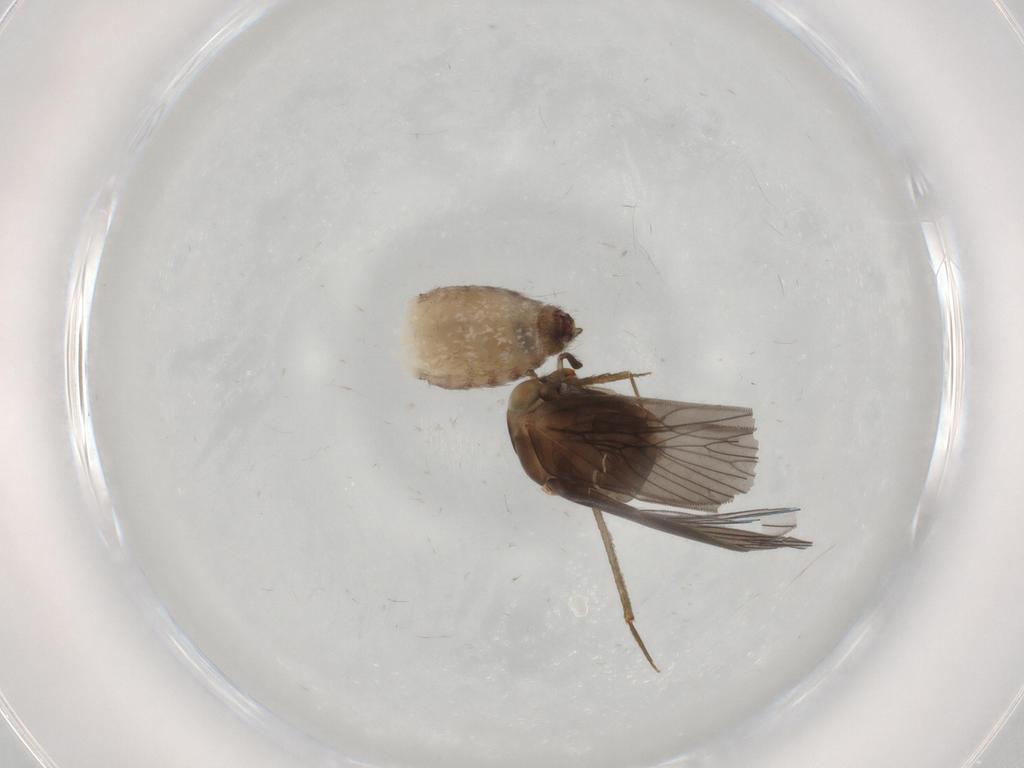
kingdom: Animalia
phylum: Arthropoda
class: Insecta
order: Psocodea
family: Lepidopsocidae
